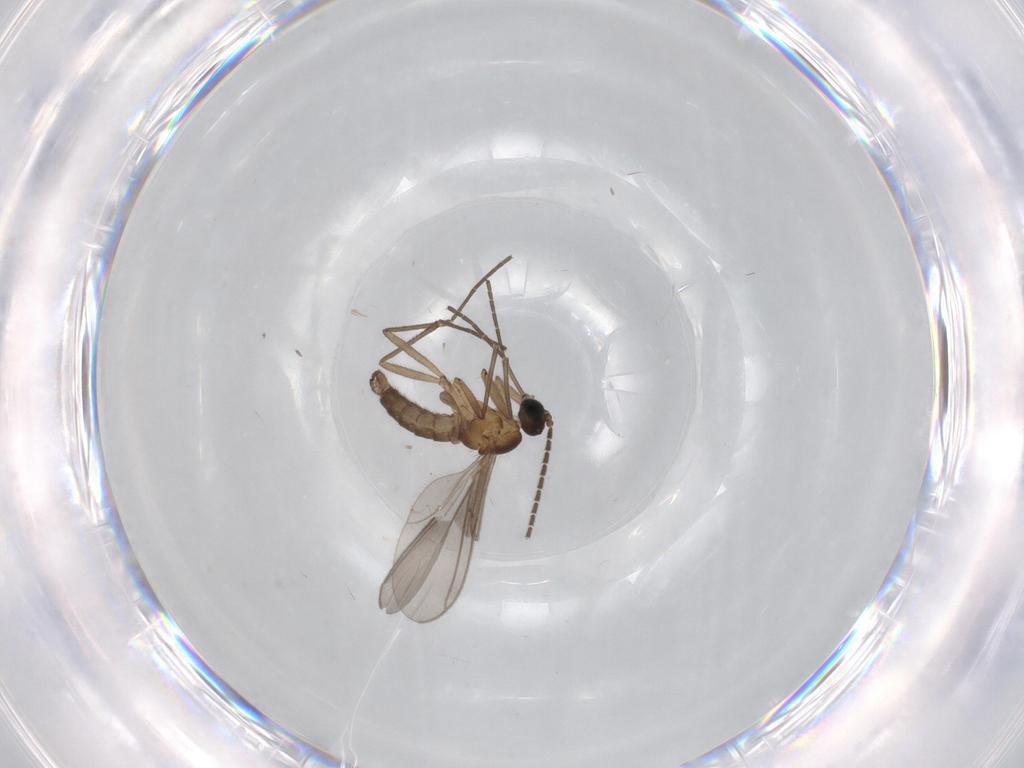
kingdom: Animalia
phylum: Arthropoda
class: Insecta
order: Diptera
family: Sciaridae
